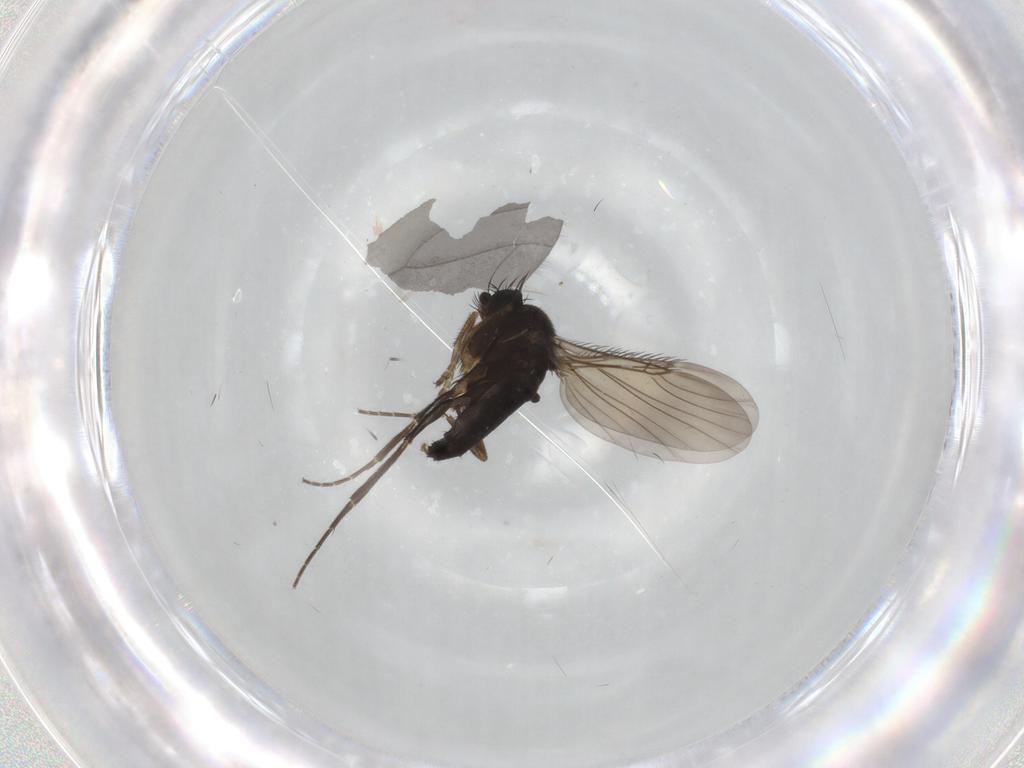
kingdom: Animalia
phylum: Arthropoda
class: Insecta
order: Diptera
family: Phoridae
